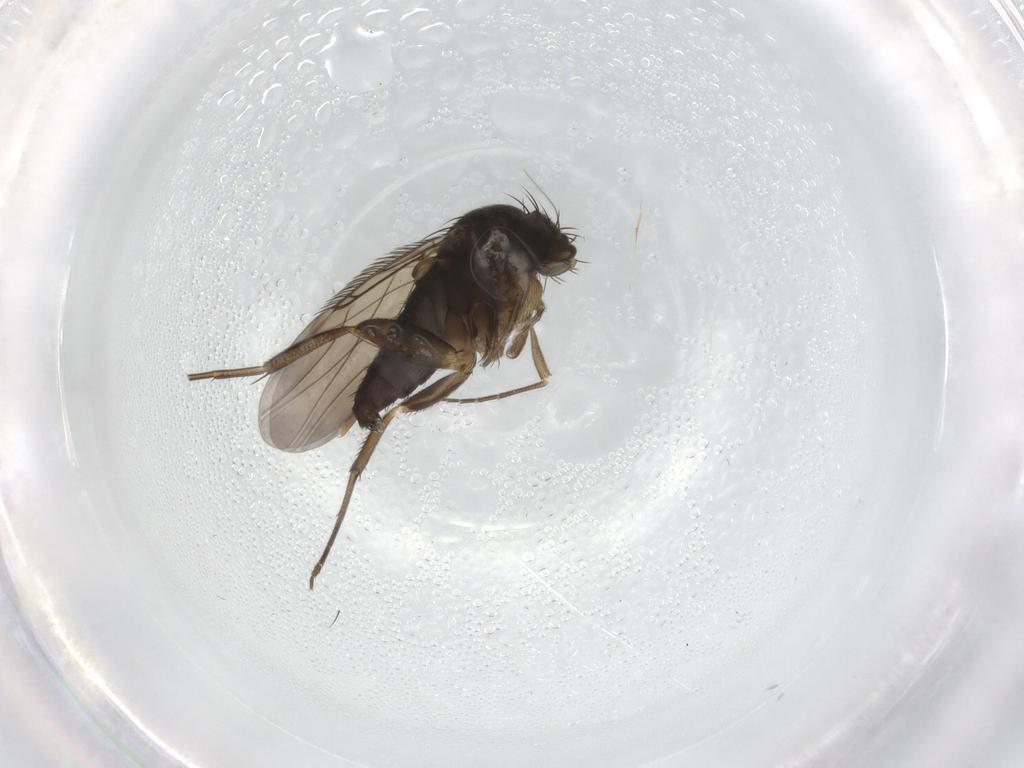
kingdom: Animalia
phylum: Arthropoda
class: Insecta
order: Diptera
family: Phoridae
